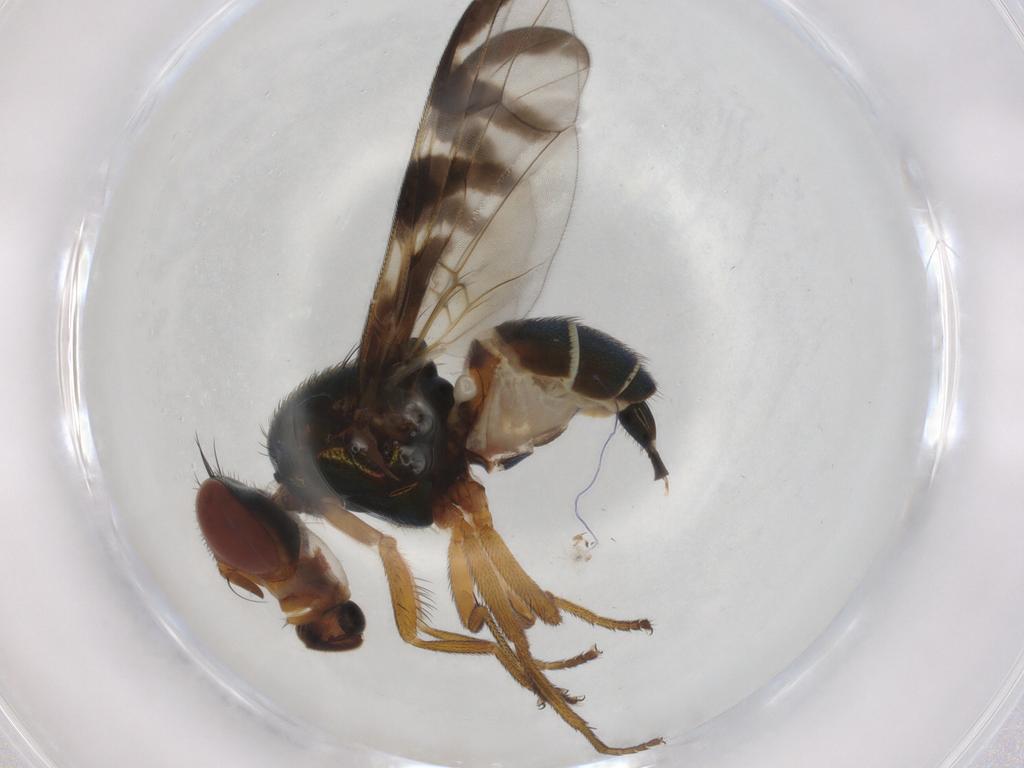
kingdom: Animalia
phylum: Arthropoda
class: Insecta
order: Diptera
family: Platystomatidae
